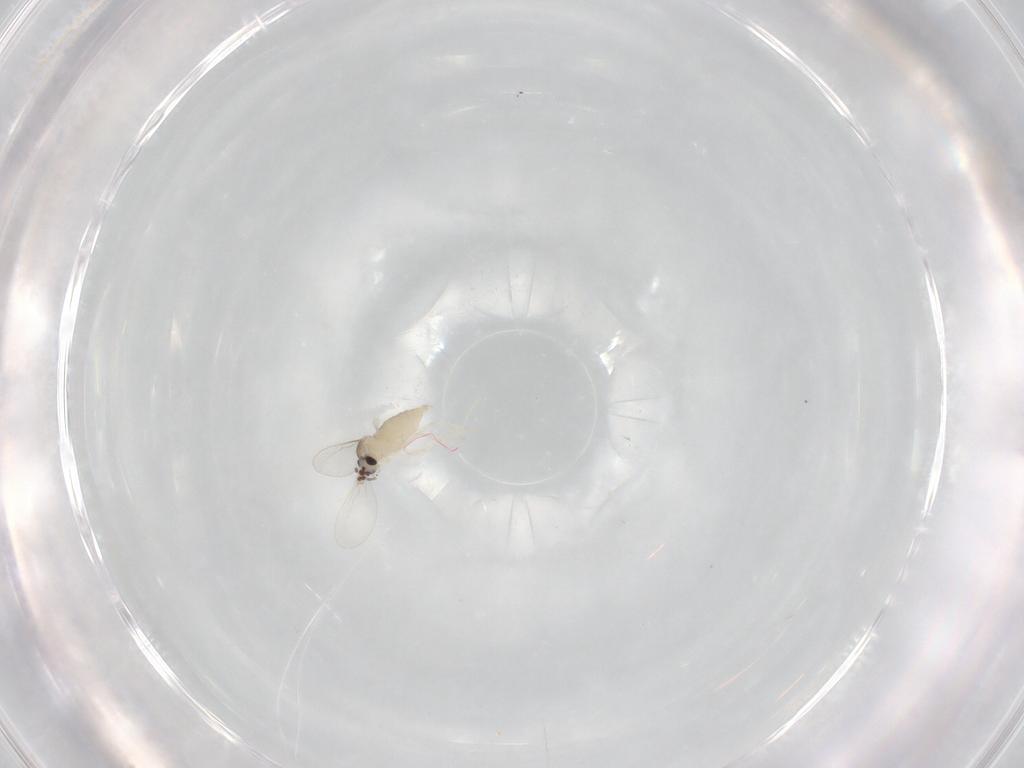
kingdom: Animalia
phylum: Arthropoda
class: Insecta
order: Diptera
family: Cecidomyiidae
